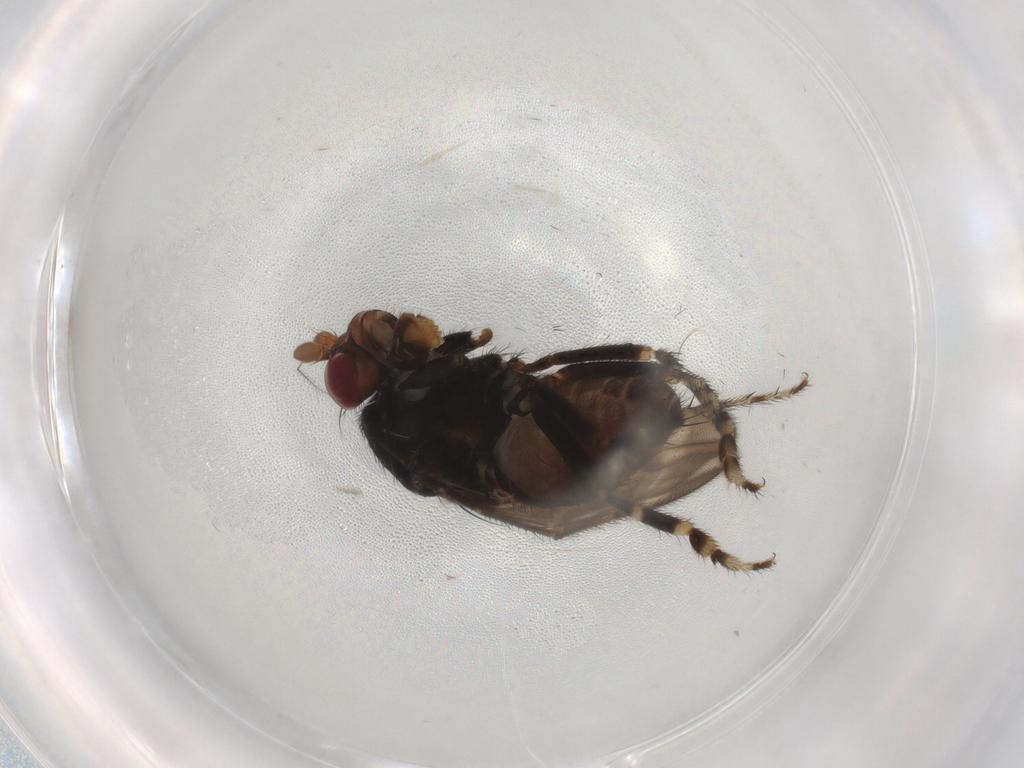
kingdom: Animalia
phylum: Arthropoda
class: Insecta
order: Diptera
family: Sphaeroceridae
